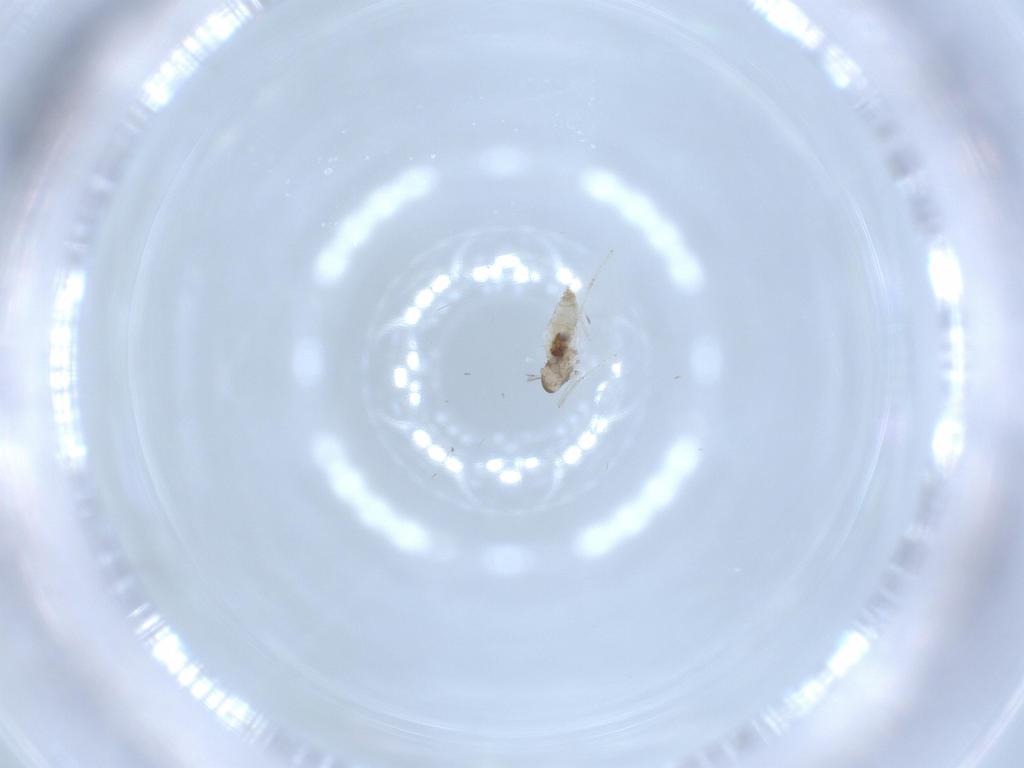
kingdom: Animalia
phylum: Arthropoda
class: Insecta
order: Diptera
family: Cecidomyiidae
